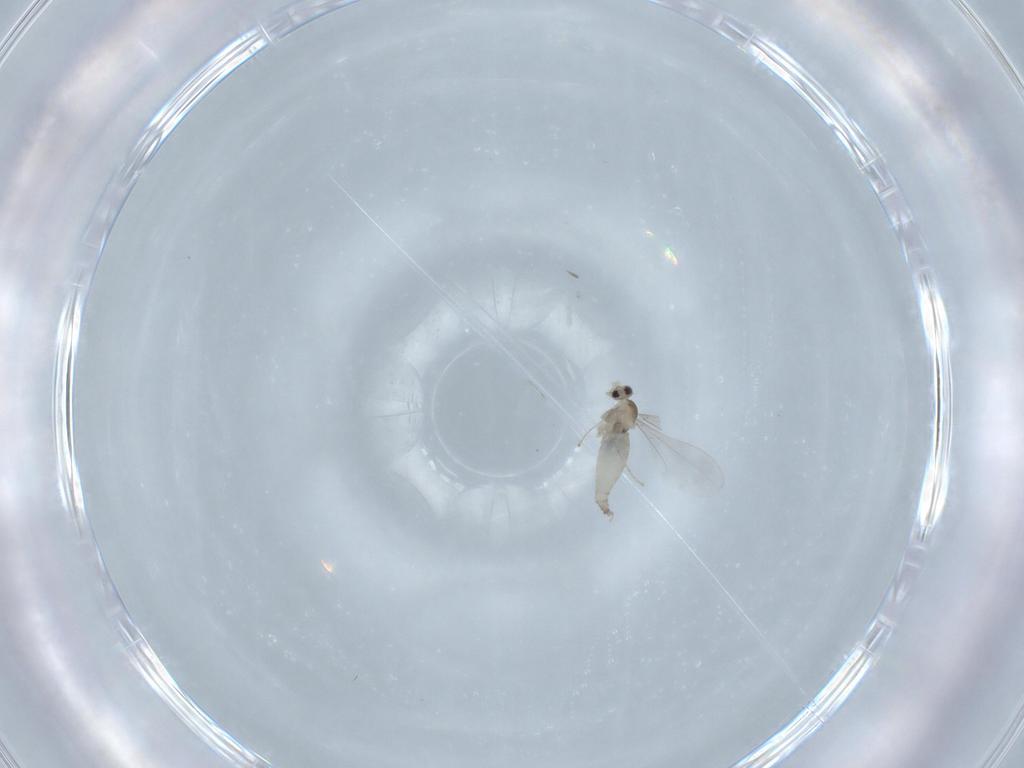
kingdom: Animalia
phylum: Arthropoda
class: Insecta
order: Diptera
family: Cecidomyiidae
